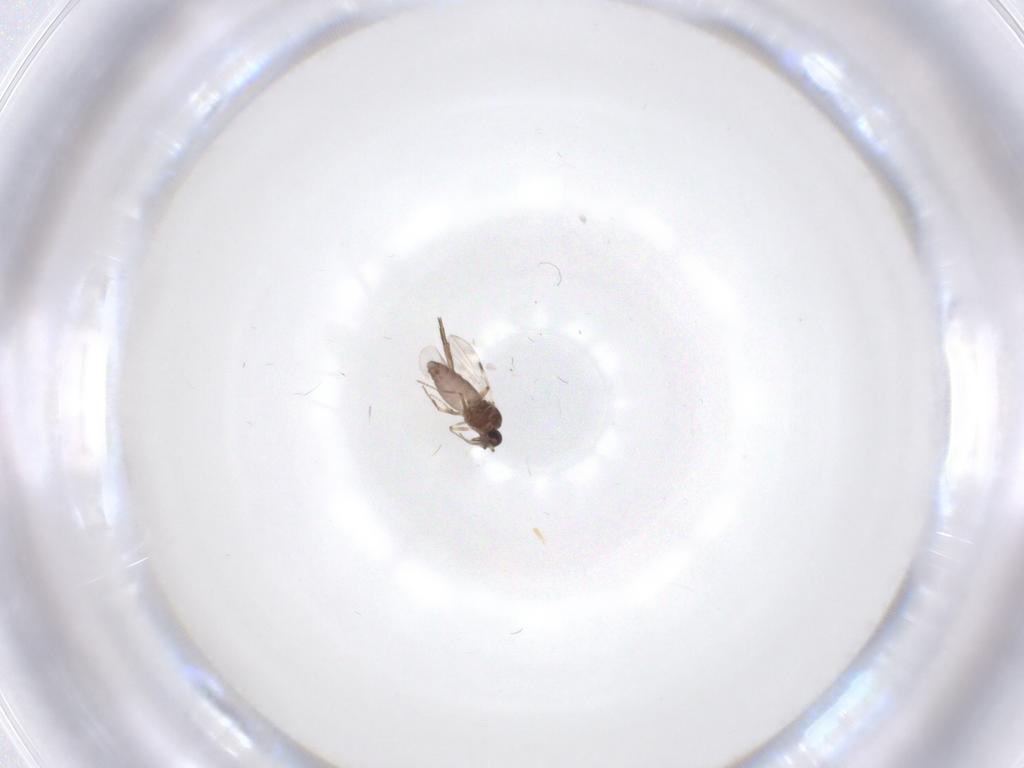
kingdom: Animalia
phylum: Arthropoda
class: Insecta
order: Diptera
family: Phoridae
